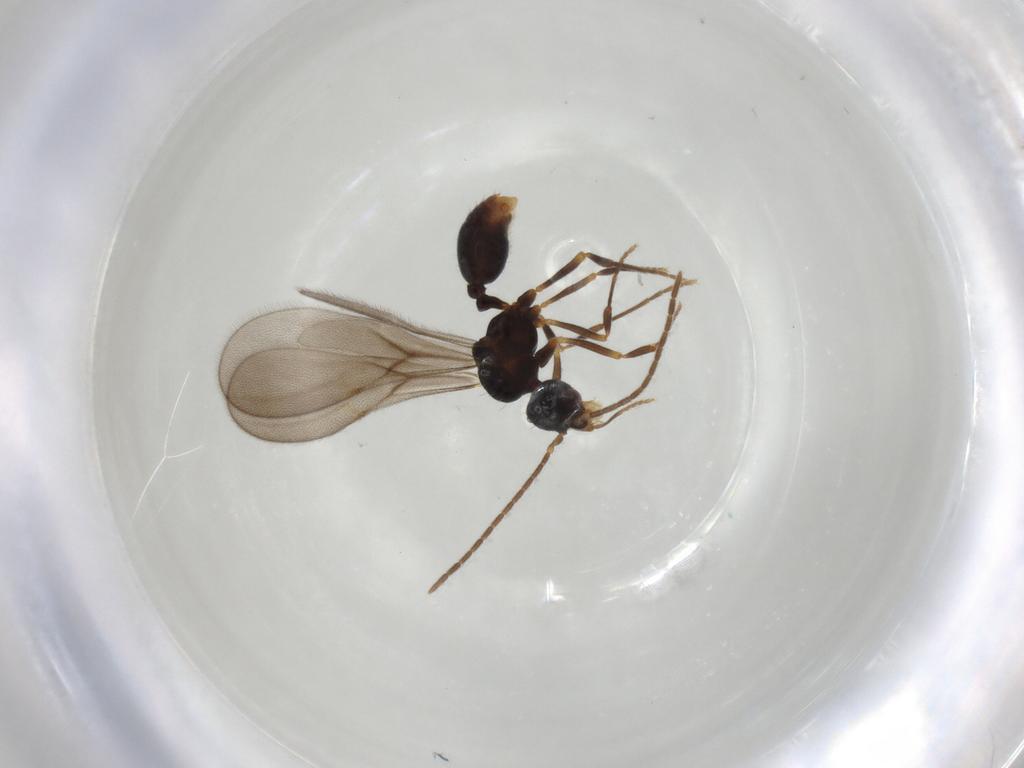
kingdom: Animalia
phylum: Arthropoda
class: Insecta
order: Hymenoptera
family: Formicidae
